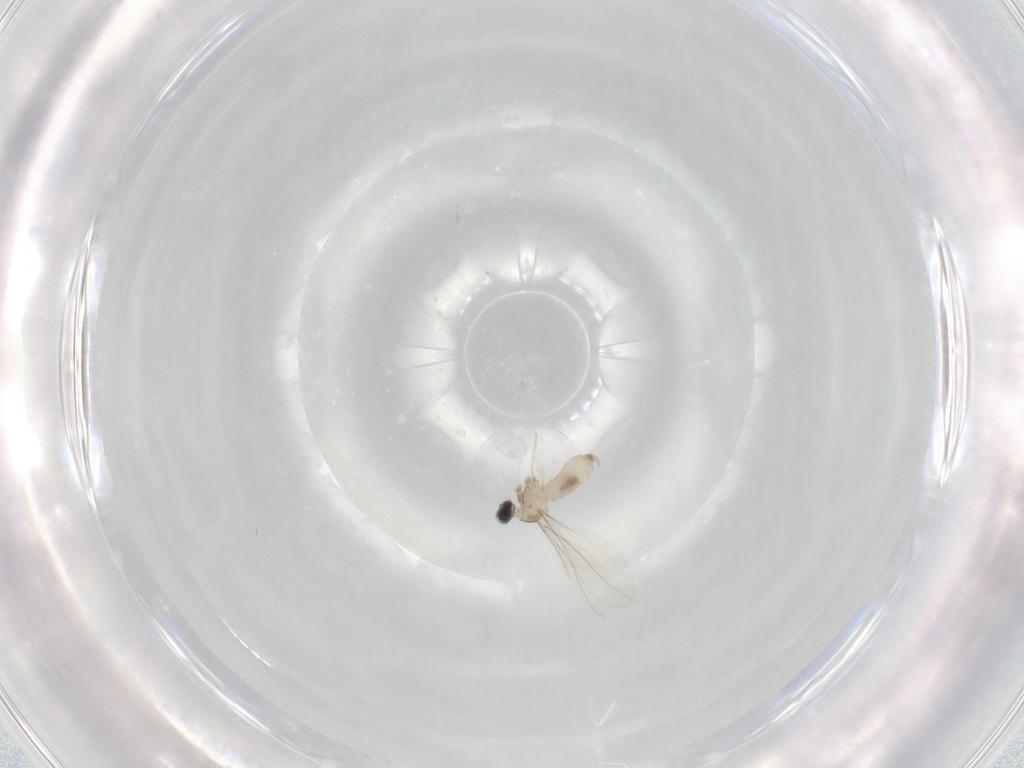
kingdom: Animalia
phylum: Arthropoda
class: Insecta
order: Diptera
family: Cecidomyiidae
